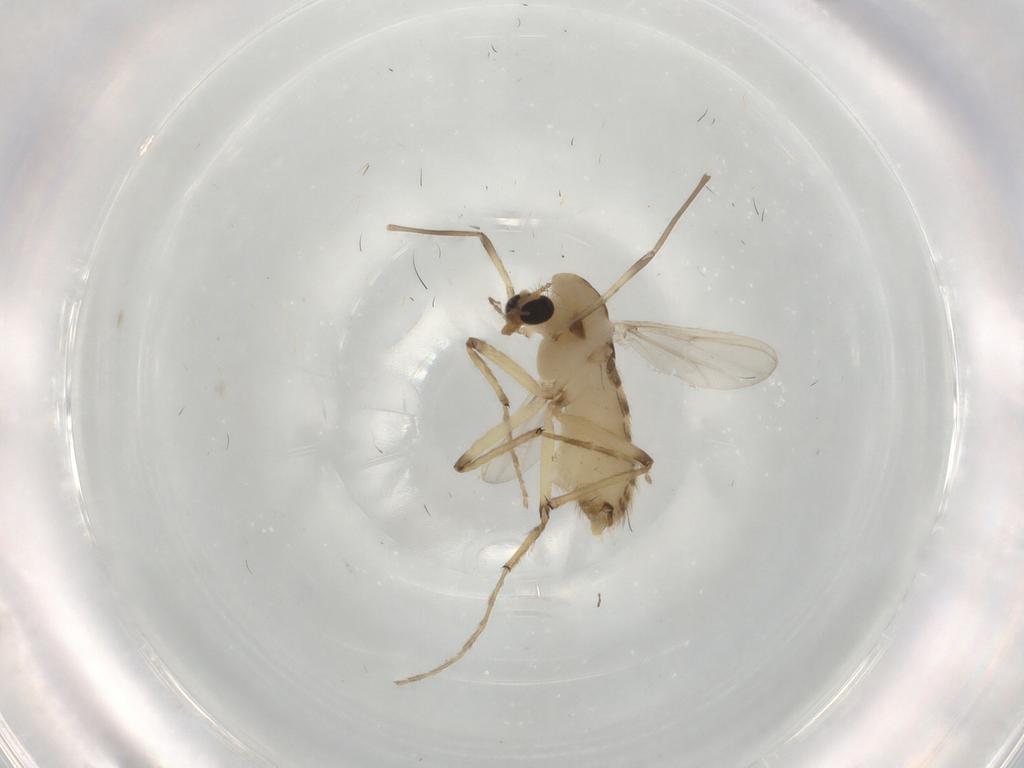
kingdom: Animalia
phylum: Arthropoda
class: Insecta
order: Diptera
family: Chironomidae
